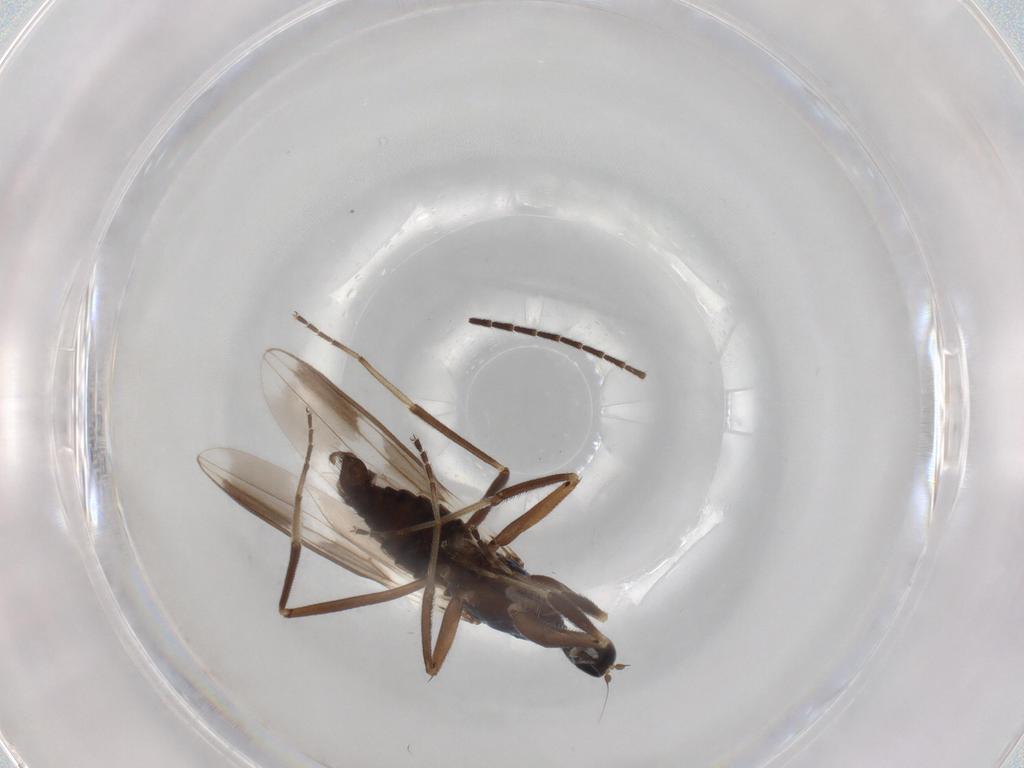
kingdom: Animalia
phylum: Arthropoda
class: Insecta
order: Diptera
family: Hybotidae
